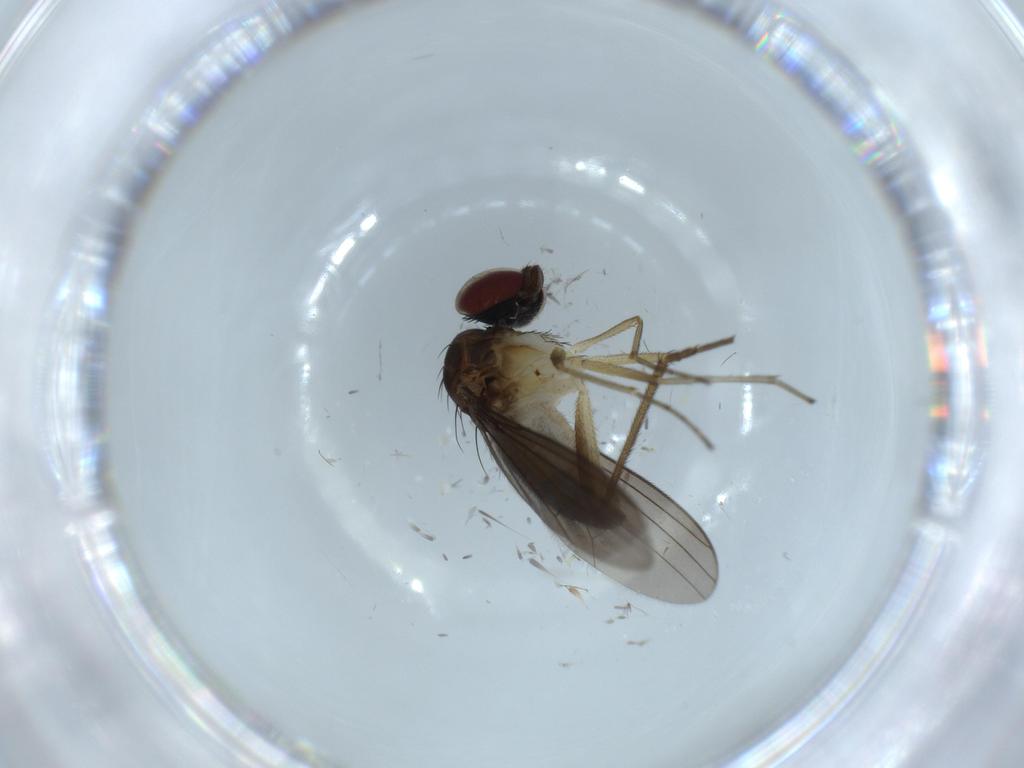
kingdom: Animalia
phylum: Arthropoda
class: Insecta
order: Diptera
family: Dolichopodidae
